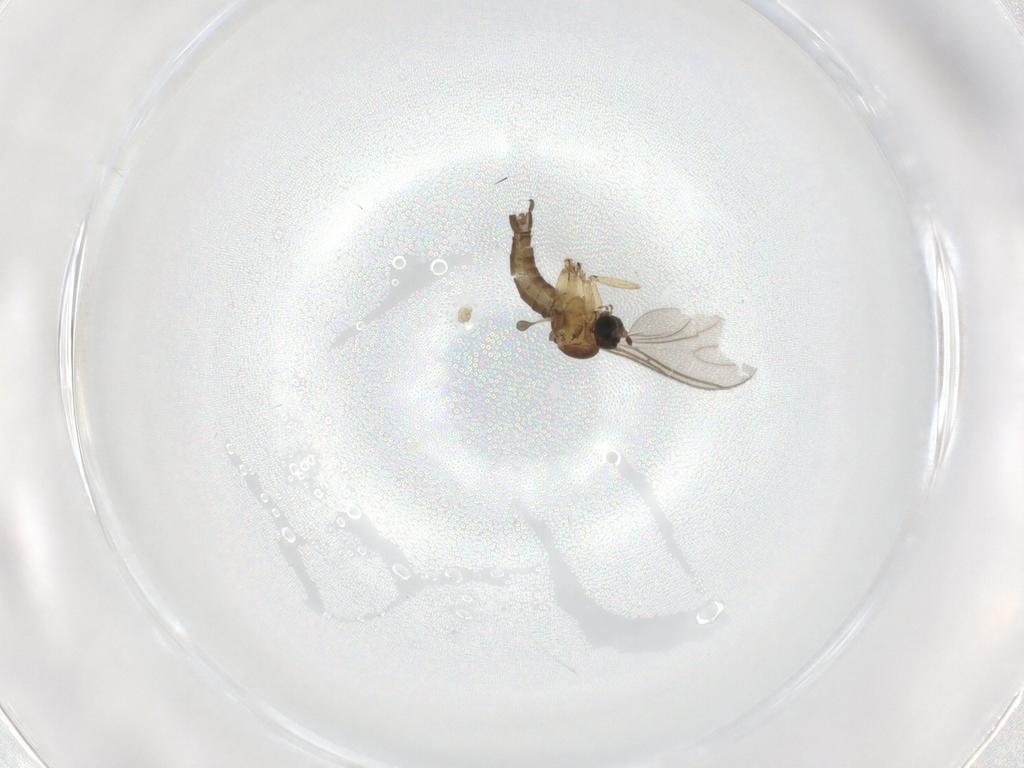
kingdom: Animalia
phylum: Arthropoda
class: Insecta
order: Diptera
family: Sciaridae
